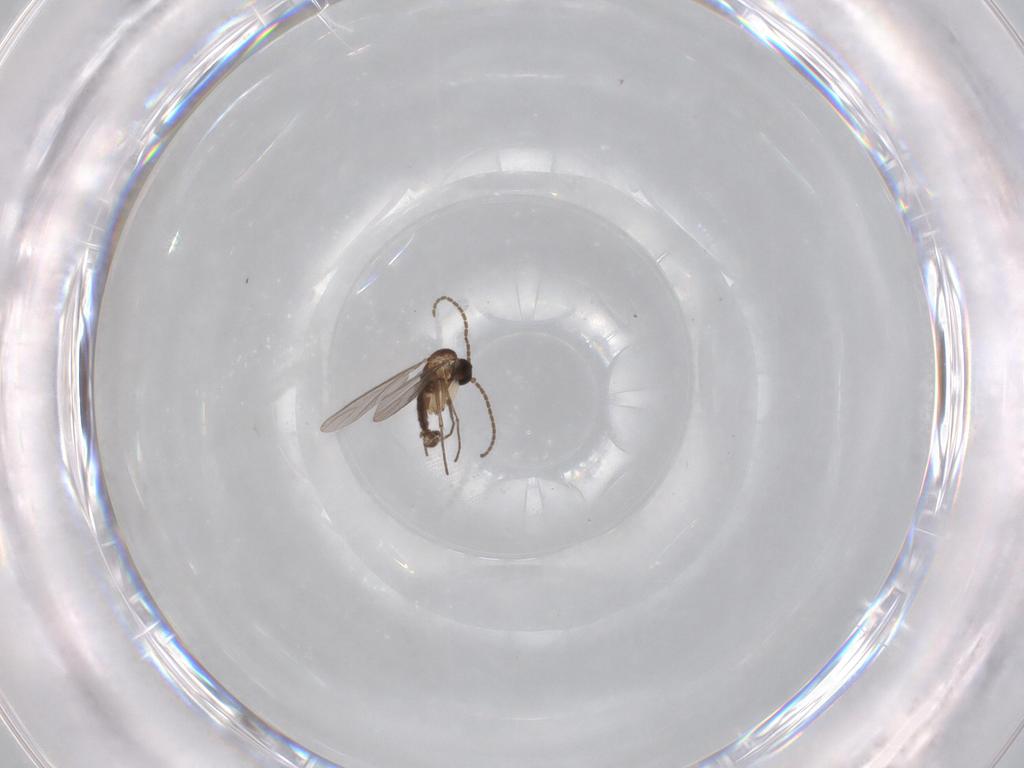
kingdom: Animalia
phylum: Arthropoda
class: Insecta
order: Diptera
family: Sciaridae
